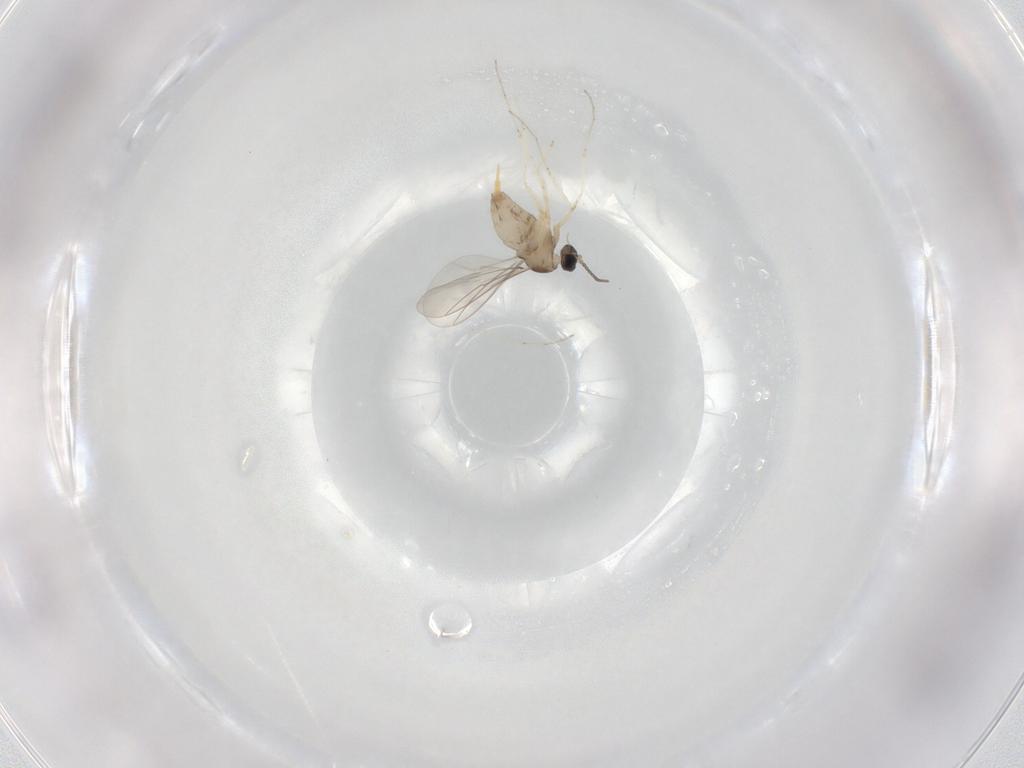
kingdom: Animalia
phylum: Arthropoda
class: Insecta
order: Diptera
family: Cecidomyiidae
